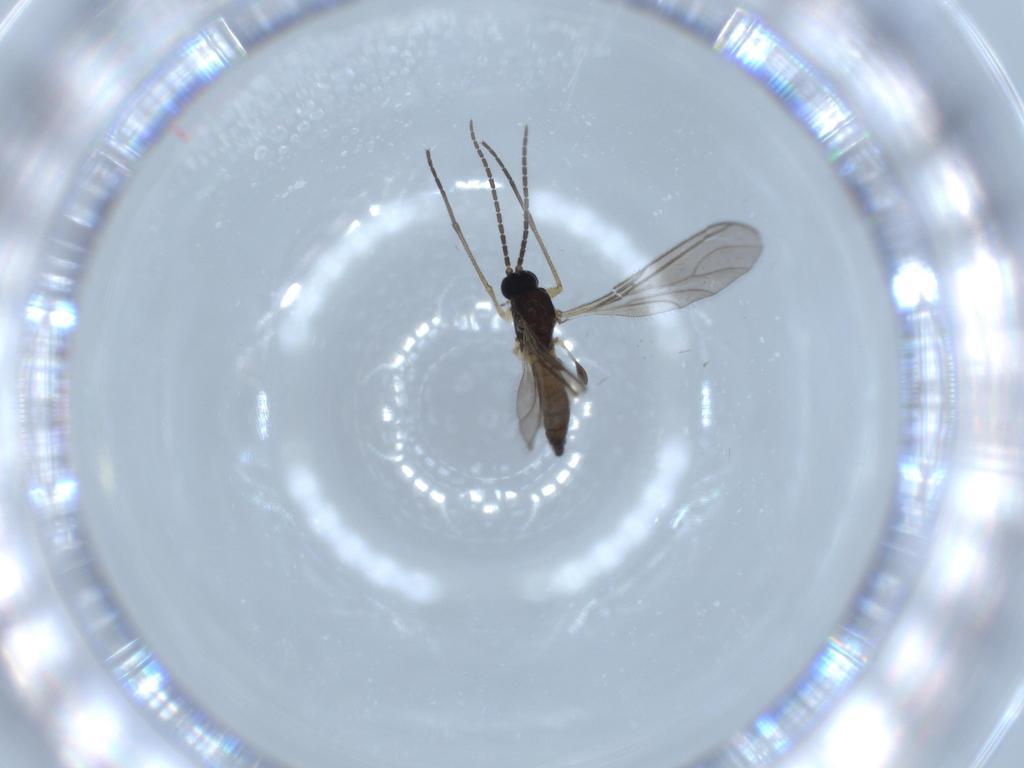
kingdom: Animalia
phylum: Arthropoda
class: Insecta
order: Diptera
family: Sciaridae
